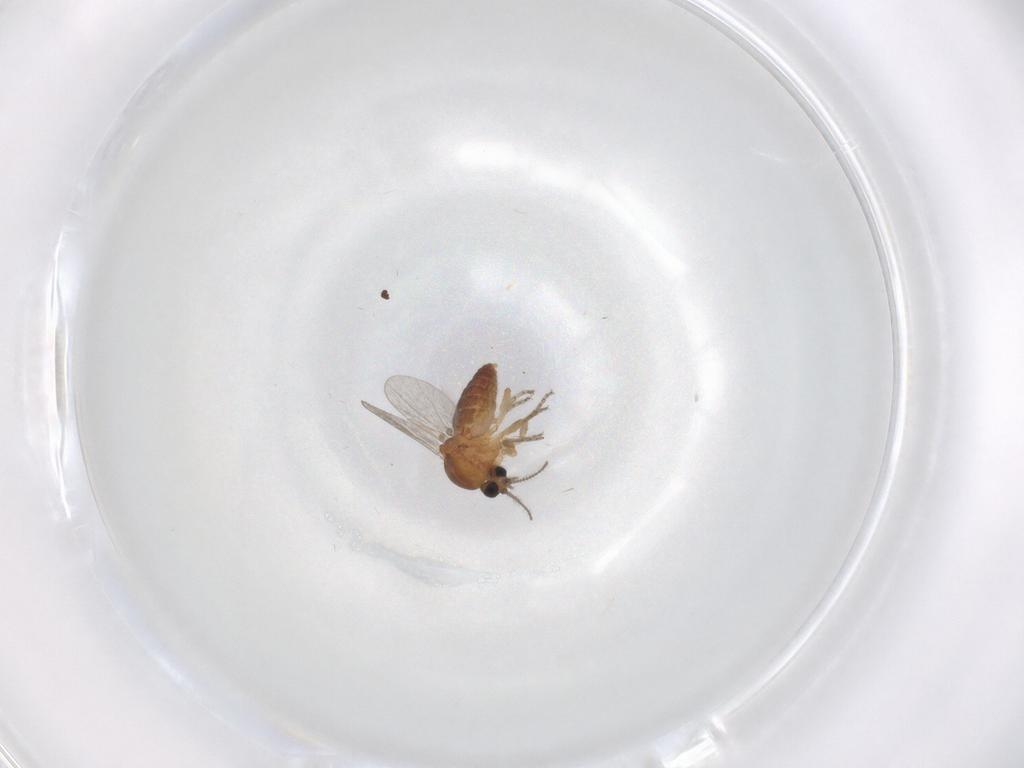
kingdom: Animalia
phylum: Arthropoda
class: Insecta
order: Diptera
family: Ceratopogonidae
